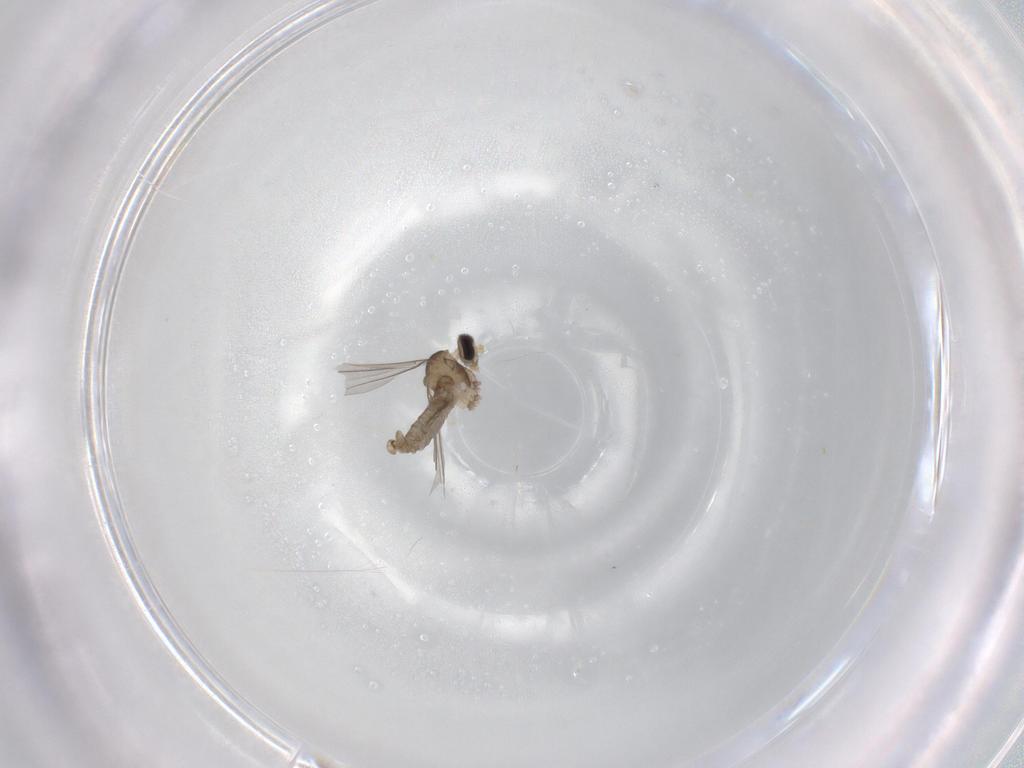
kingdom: Animalia
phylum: Arthropoda
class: Insecta
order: Diptera
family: Cecidomyiidae
